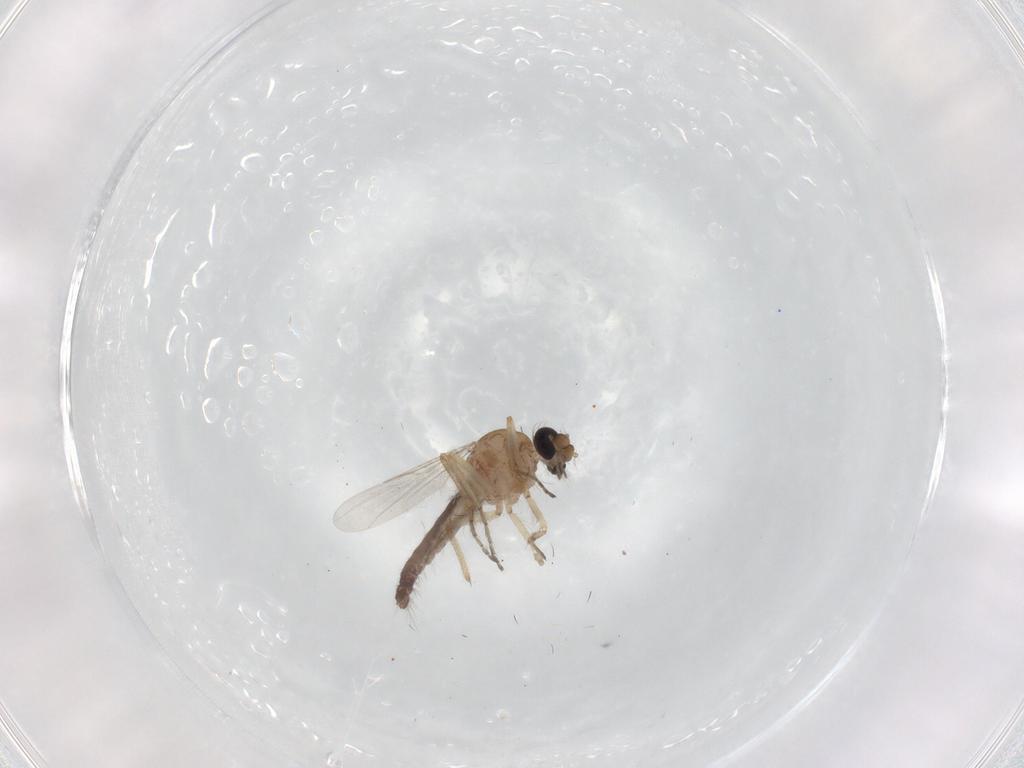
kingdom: Animalia
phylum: Arthropoda
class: Insecta
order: Diptera
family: Ceratopogonidae
